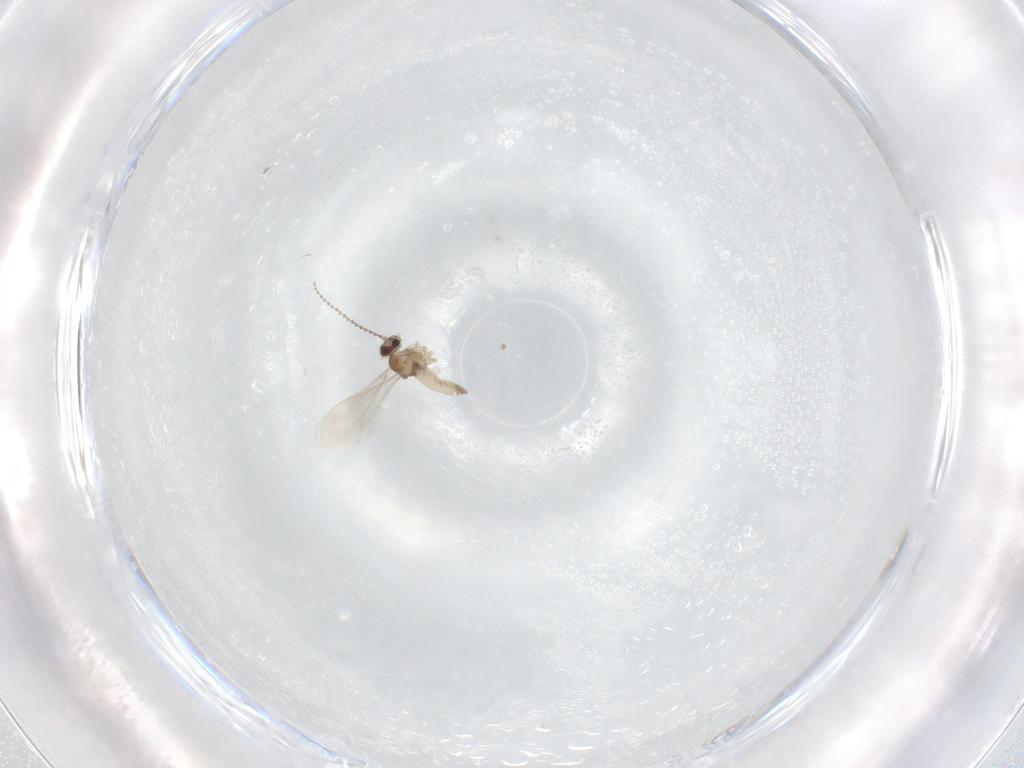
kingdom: Animalia
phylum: Arthropoda
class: Insecta
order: Diptera
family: Cecidomyiidae
